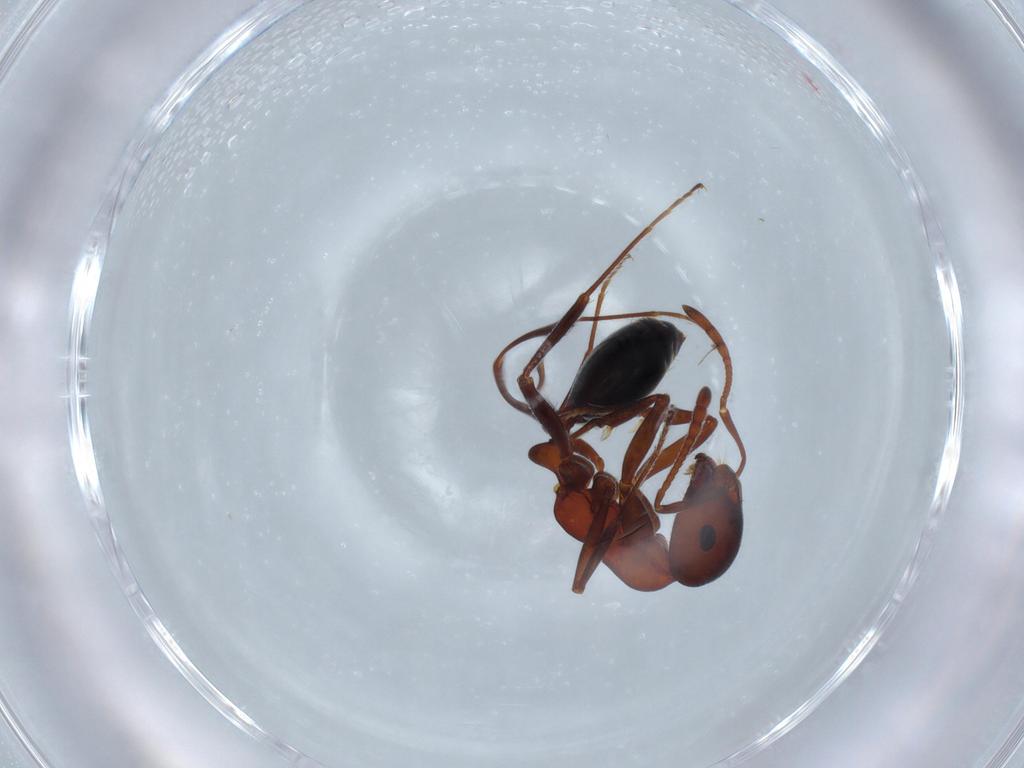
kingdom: Animalia
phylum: Arthropoda
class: Insecta
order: Hymenoptera
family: Formicidae
